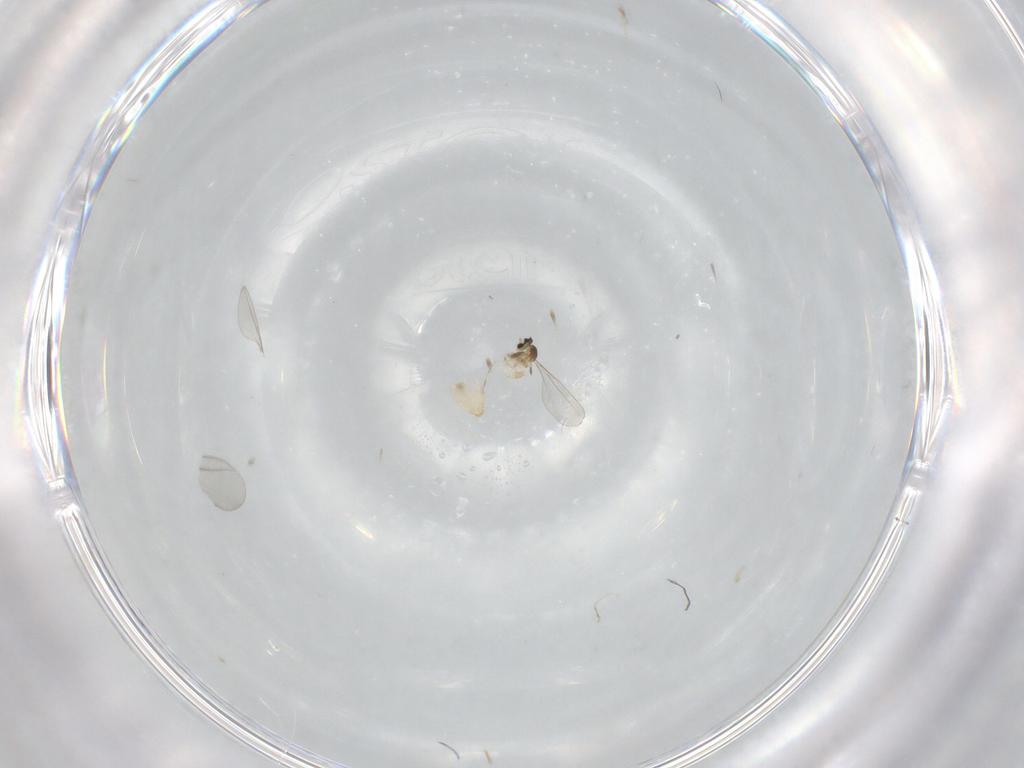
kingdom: Animalia
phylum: Arthropoda
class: Insecta
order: Diptera
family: Cecidomyiidae
